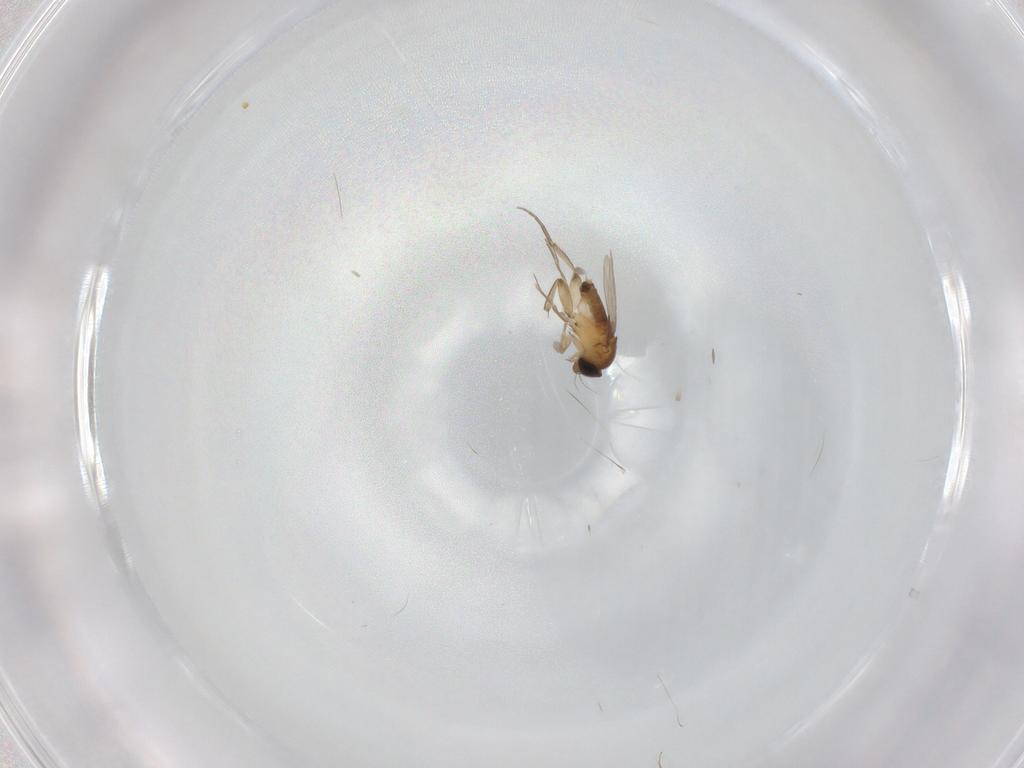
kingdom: Animalia
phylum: Arthropoda
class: Insecta
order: Diptera
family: Phoridae
